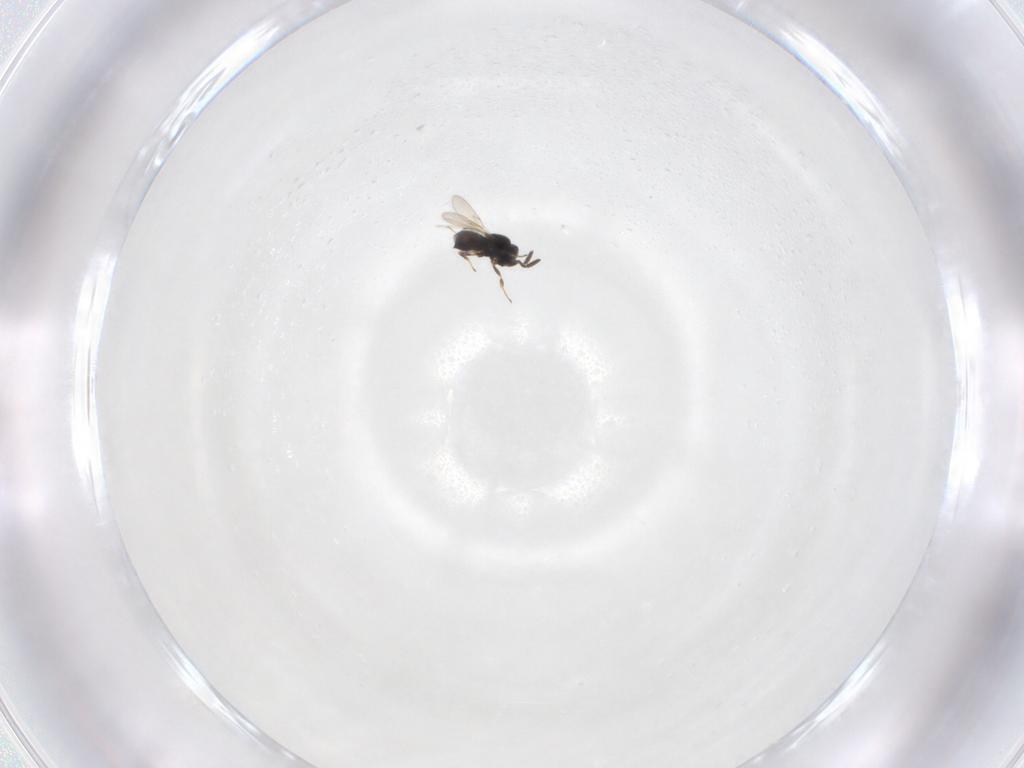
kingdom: Animalia
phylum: Arthropoda
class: Insecta
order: Hymenoptera
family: Scelionidae
